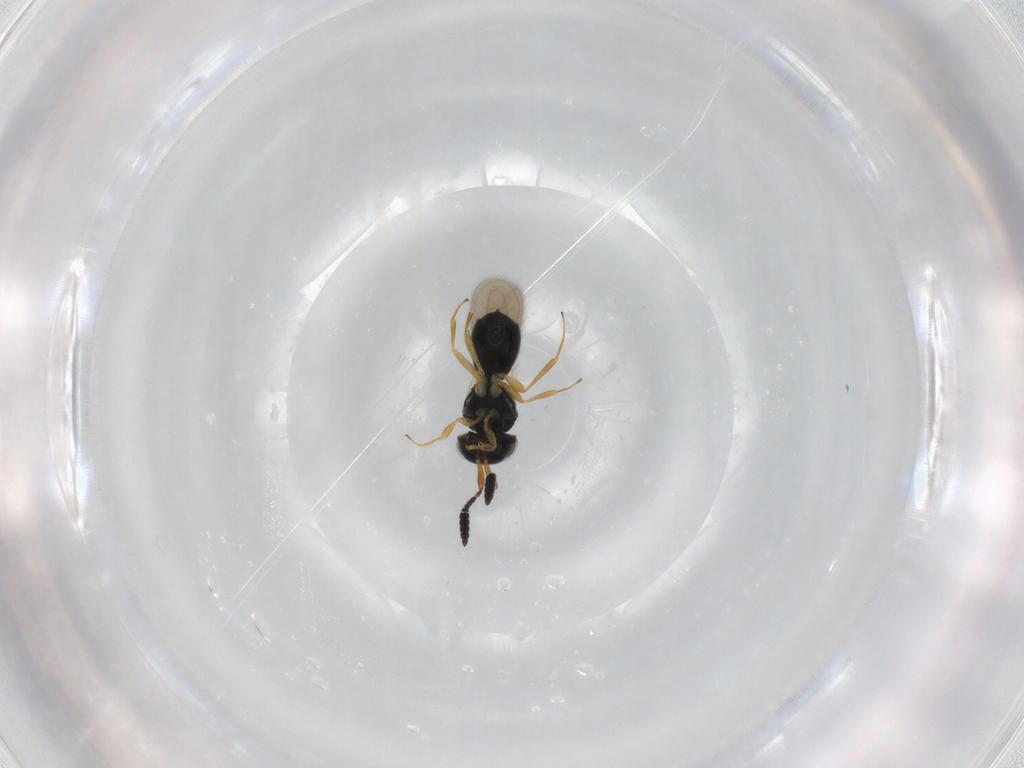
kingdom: Animalia
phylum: Arthropoda
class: Insecta
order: Hymenoptera
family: Scelionidae
